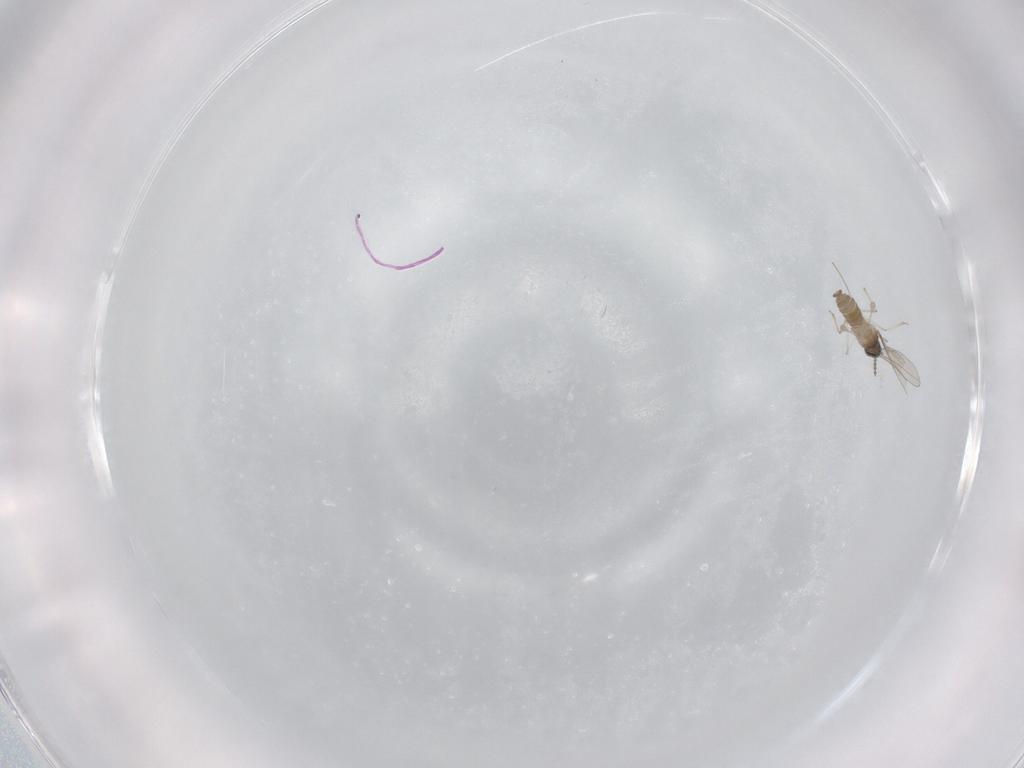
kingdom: Animalia
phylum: Arthropoda
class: Insecta
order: Diptera
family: Cecidomyiidae
